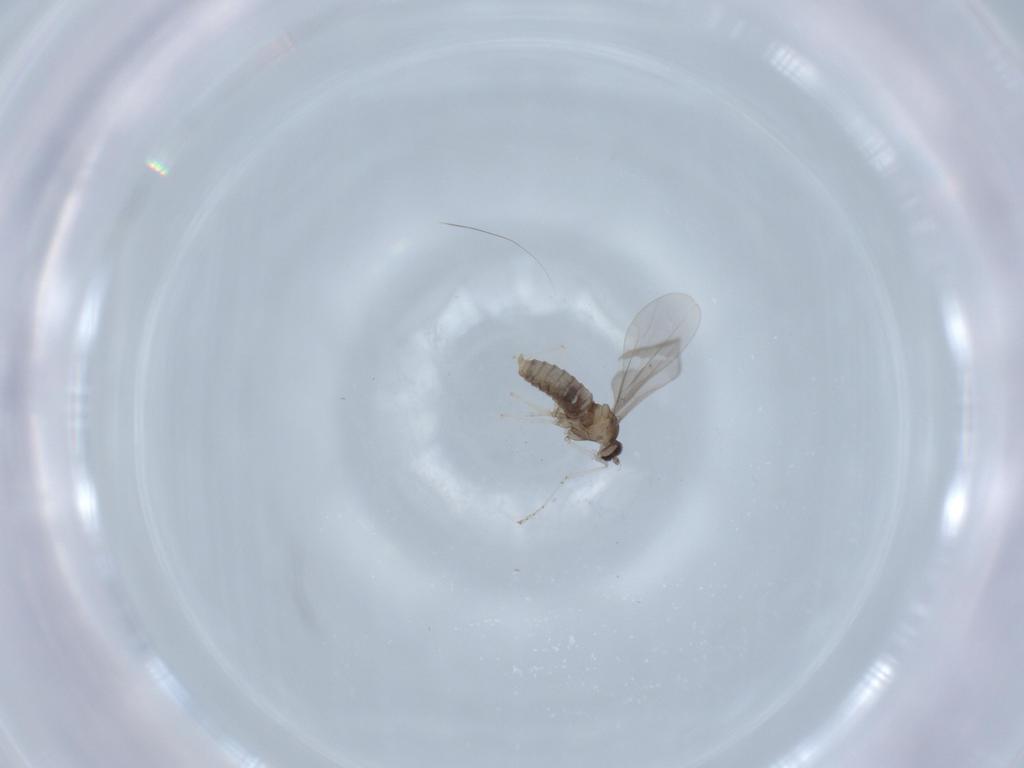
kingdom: Animalia
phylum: Arthropoda
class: Insecta
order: Diptera
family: Cecidomyiidae
